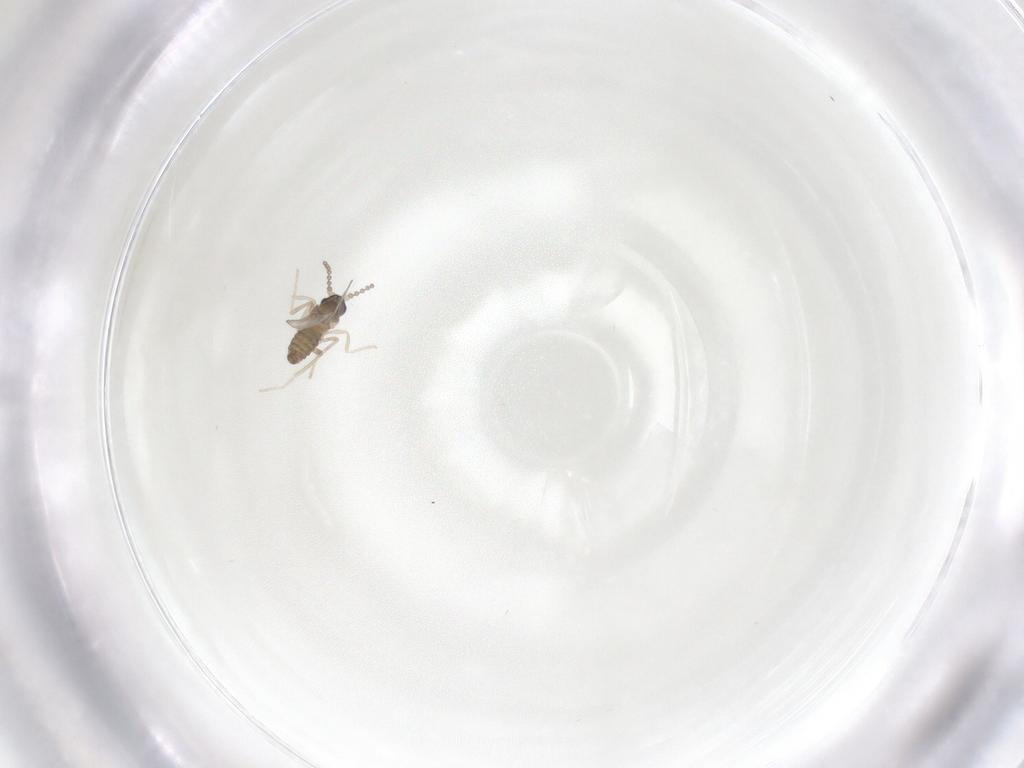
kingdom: Animalia
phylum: Arthropoda
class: Insecta
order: Diptera
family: Cecidomyiidae
